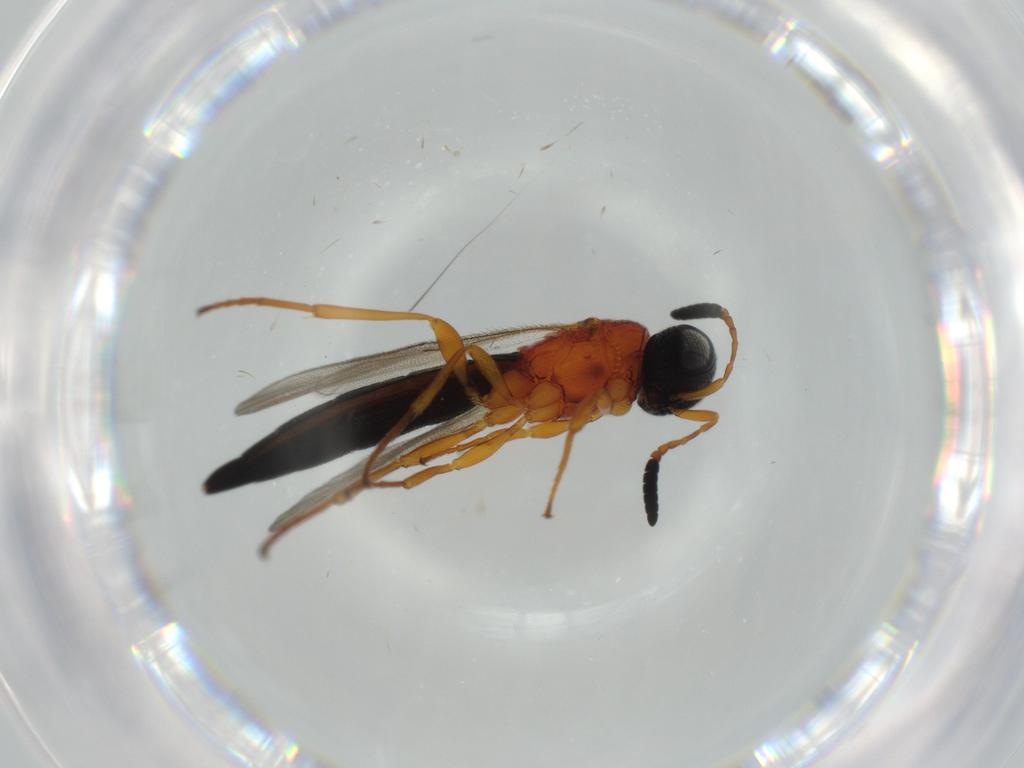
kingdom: Animalia
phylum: Arthropoda
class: Insecta
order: Hymenoptera
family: Scelionidae
